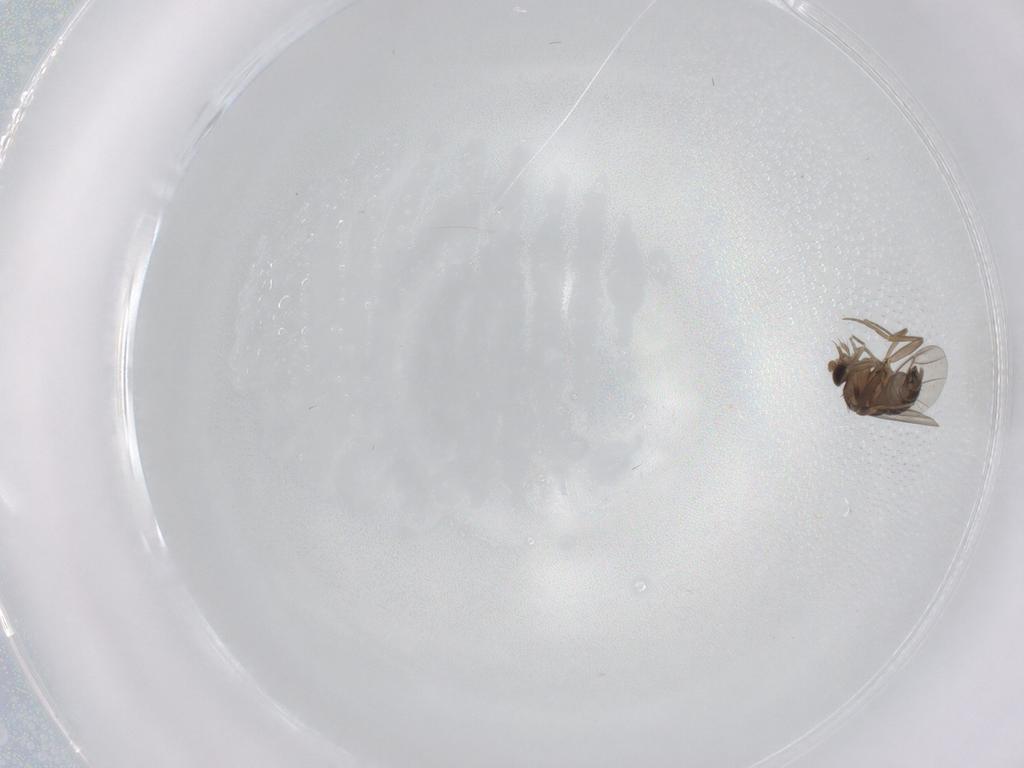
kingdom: Animalia
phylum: Arthropoda
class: Insecta
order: Diptera
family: Phoridae
